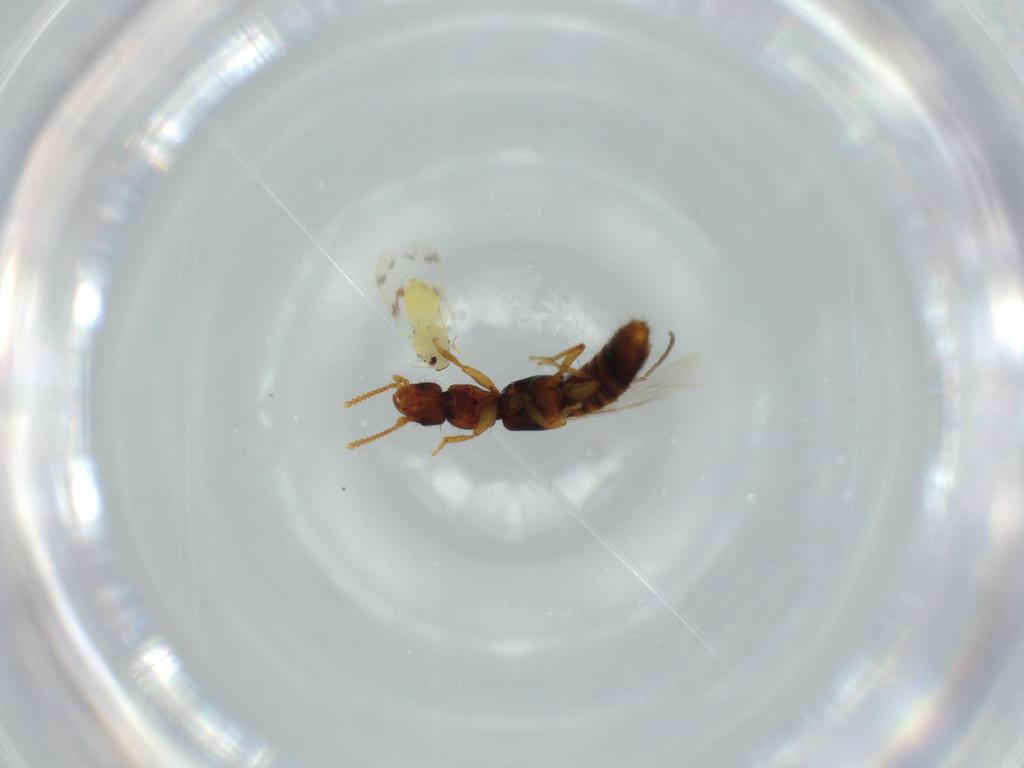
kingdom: Animalia
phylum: Arthropoda
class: Insecta
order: Hemiptera
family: Aleyrodidae
